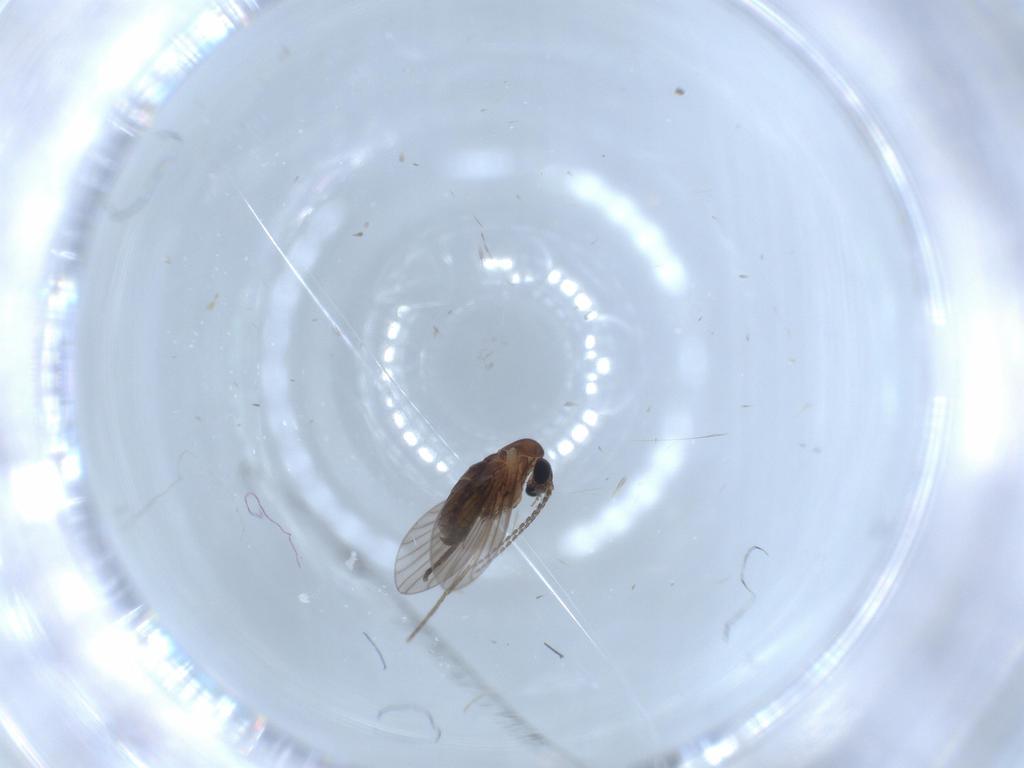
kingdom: Animalia
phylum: Arthropoda
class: Insecta
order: Diptera
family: Psychodidae
